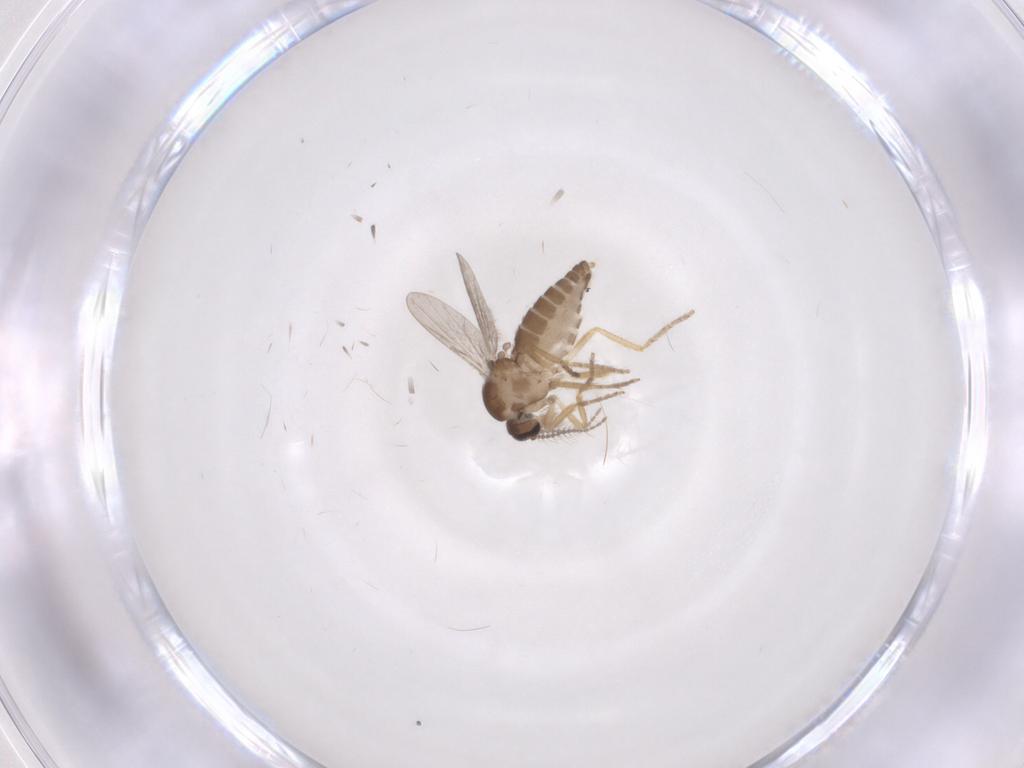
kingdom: Animalia
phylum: Arthropoda
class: Insecta
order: Diptera
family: Ceratopogonidae
